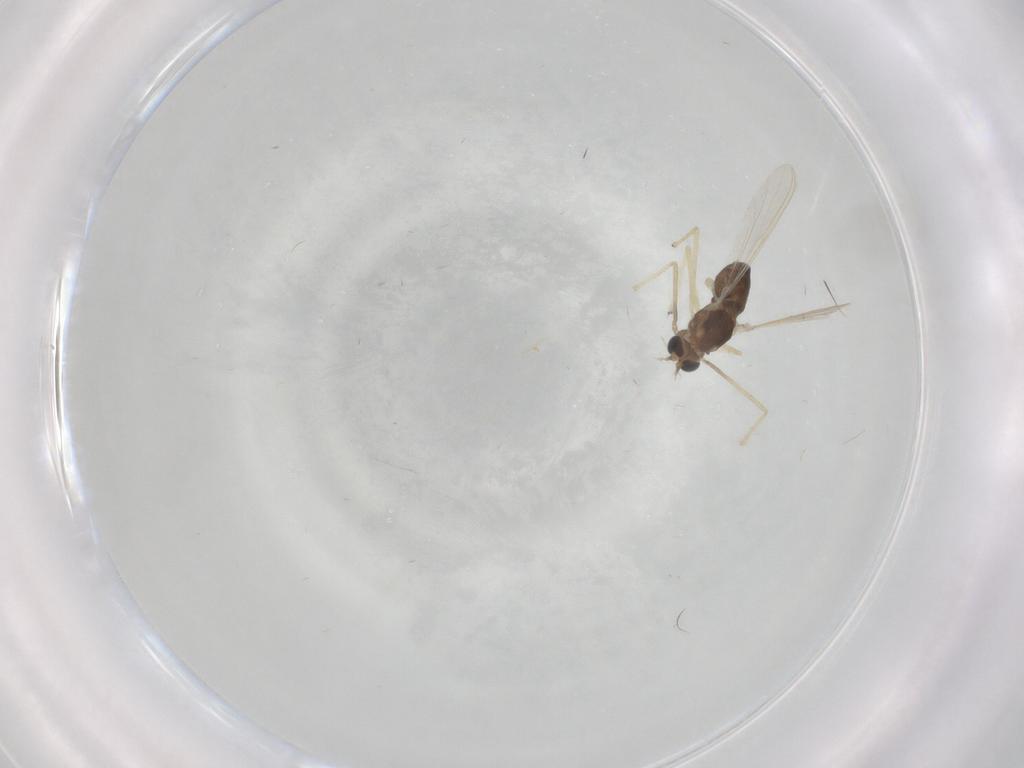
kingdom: Animalia
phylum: Arthropoda
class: Insecta
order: Diptera
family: Chironomidae
